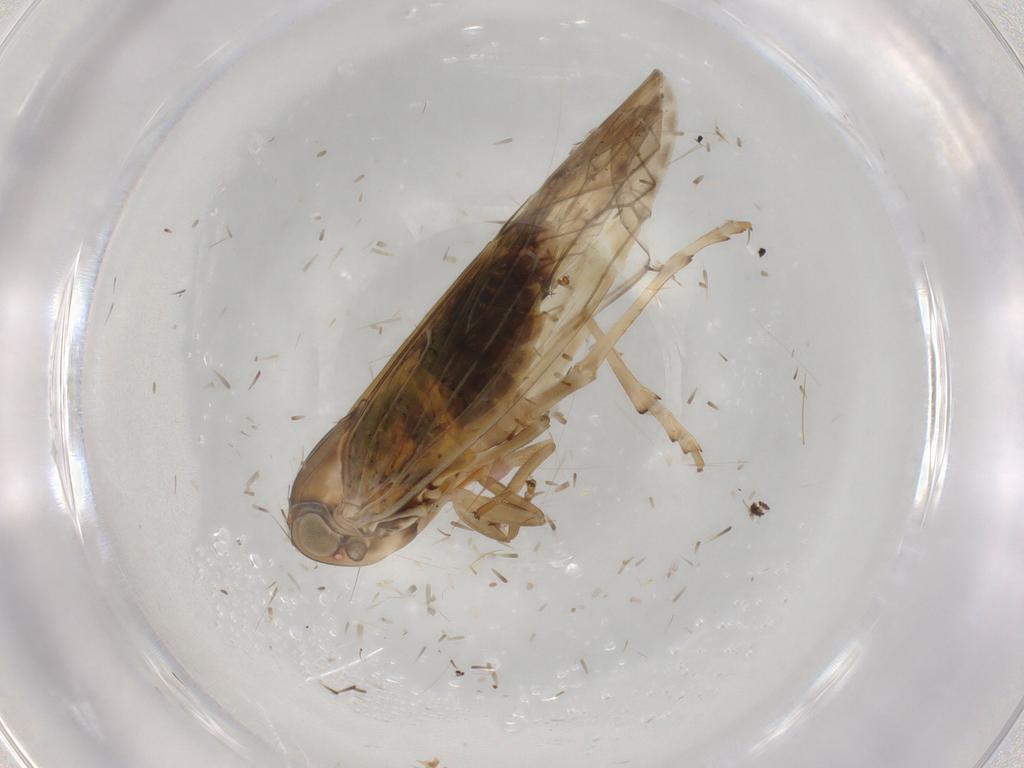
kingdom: Animalia
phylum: Arthropoda
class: Insecta
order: Hemiptera
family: Achilidae
